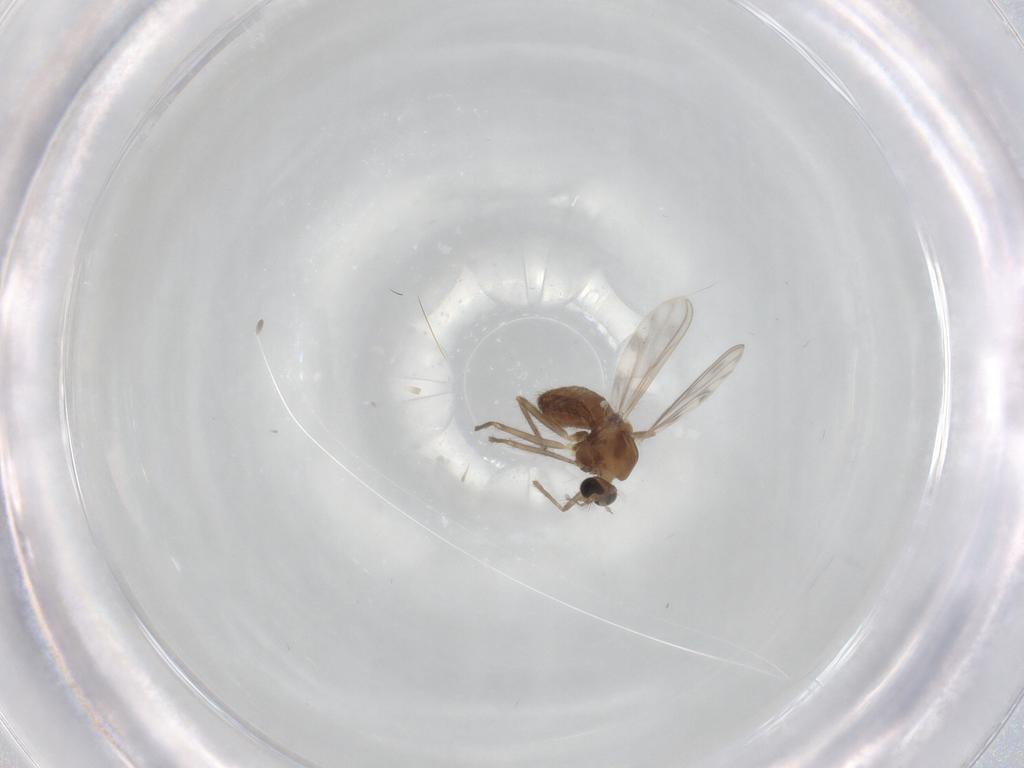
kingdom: Animalia
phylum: Arthropoda
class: Insecta
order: Diptera
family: Chironomidae
